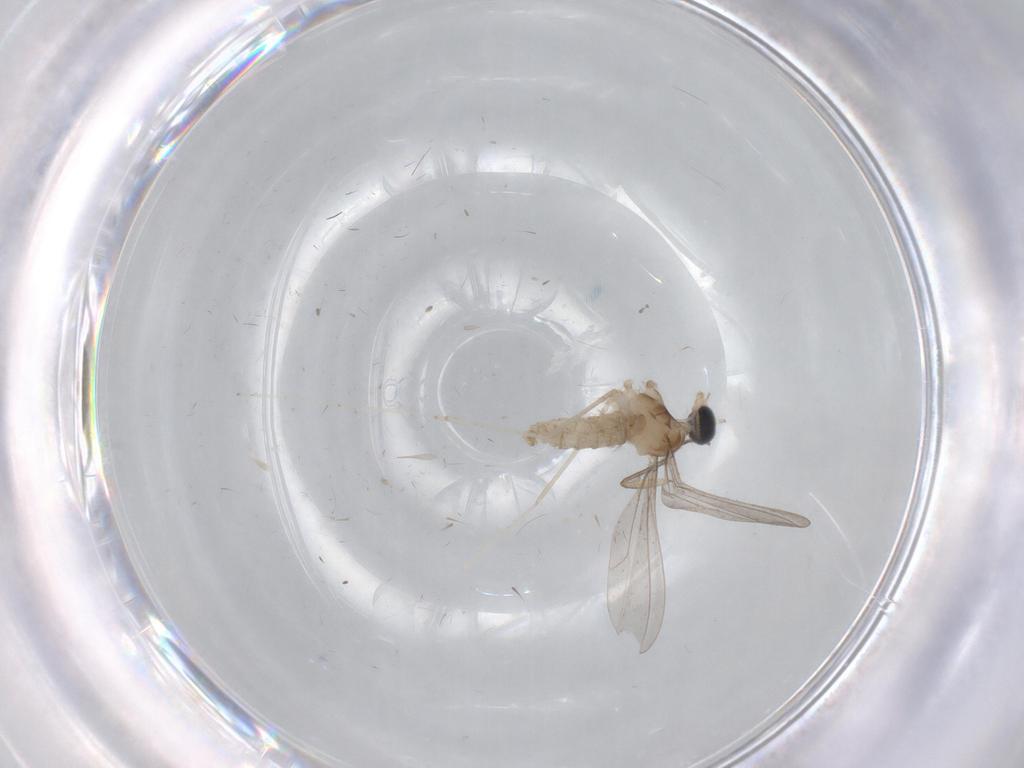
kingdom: Animalia
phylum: Arthropoda
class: Insecta
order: Diptera
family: Cecidomyiidae
